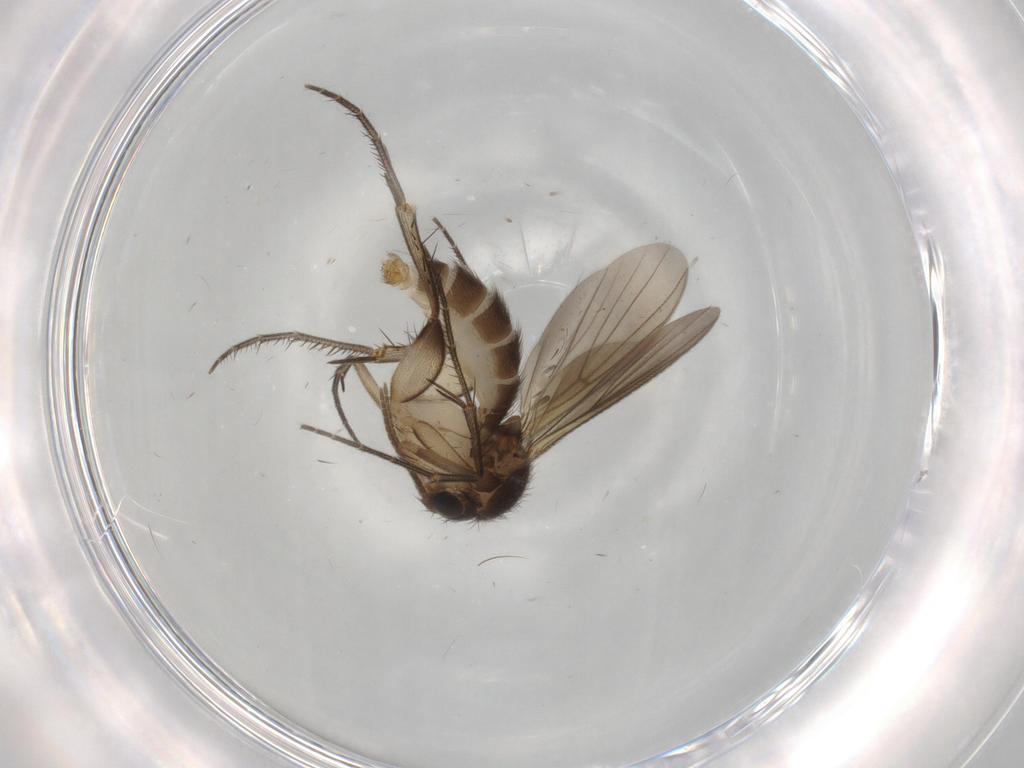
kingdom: Animalia
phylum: Arthropoda
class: Insecta
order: Diptera
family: Mycetophilidae
